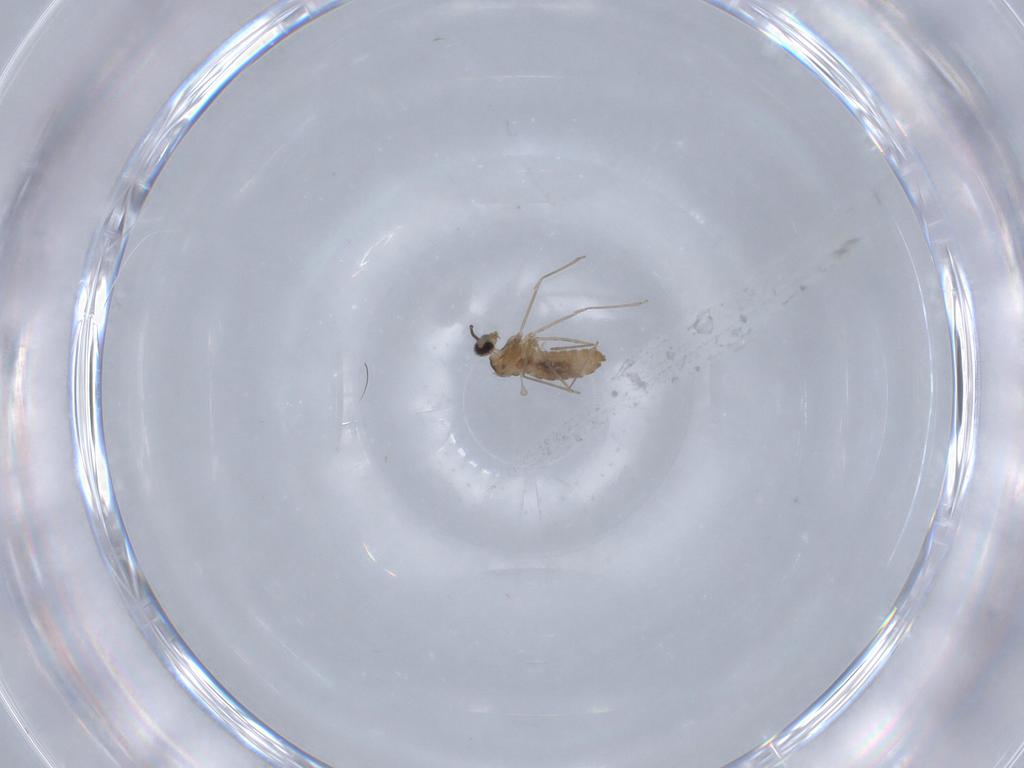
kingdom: Animalia
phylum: Arthropoda
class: Insecta
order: Diptera
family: Cecidomyiidae
